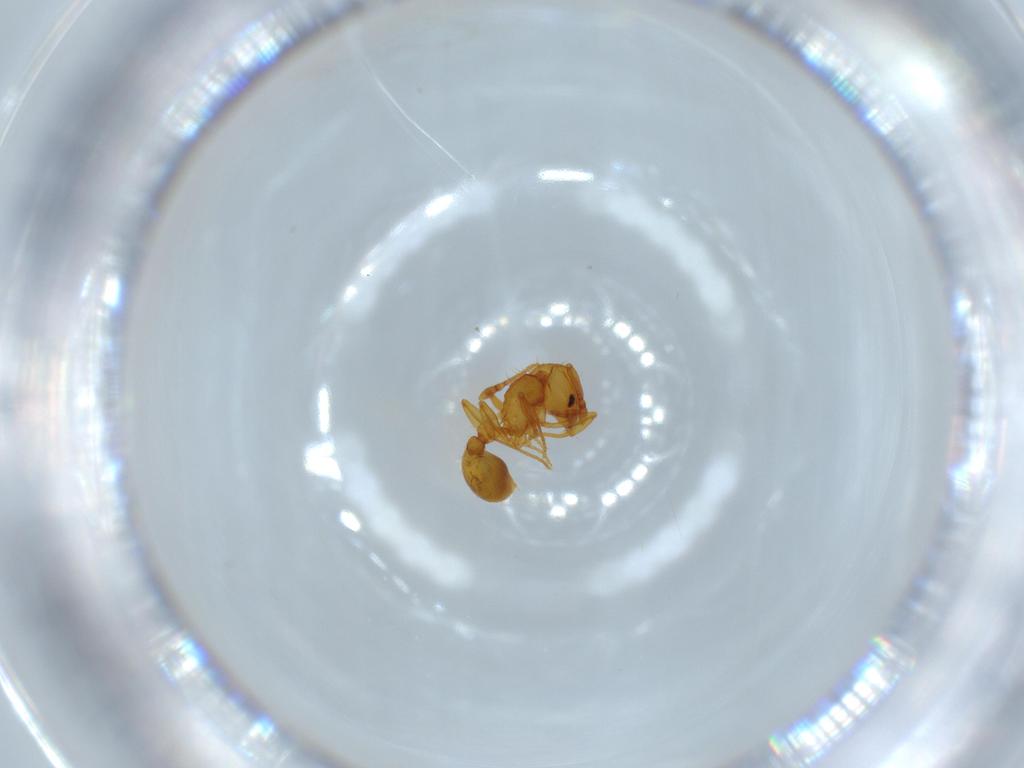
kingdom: Animalia
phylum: Arthropoda
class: Insecta
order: Hymenoptera
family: Formicidae
